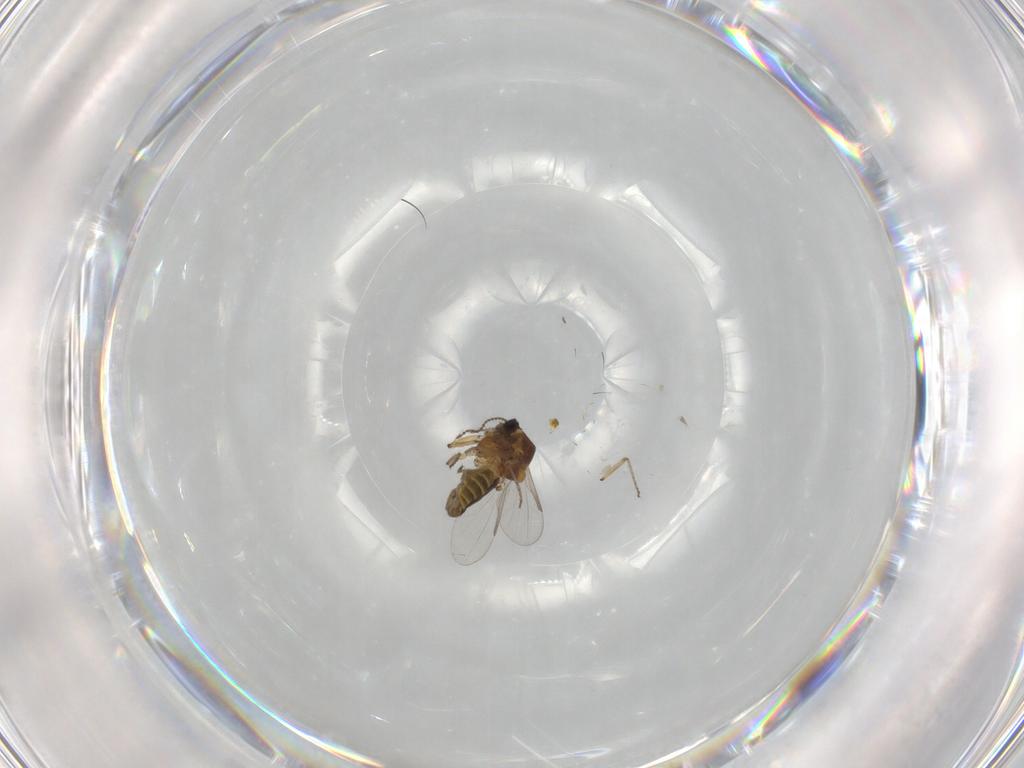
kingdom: Animalia
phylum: Arthropoda
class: Insecta
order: Diptera
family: Ceratopogonidae
